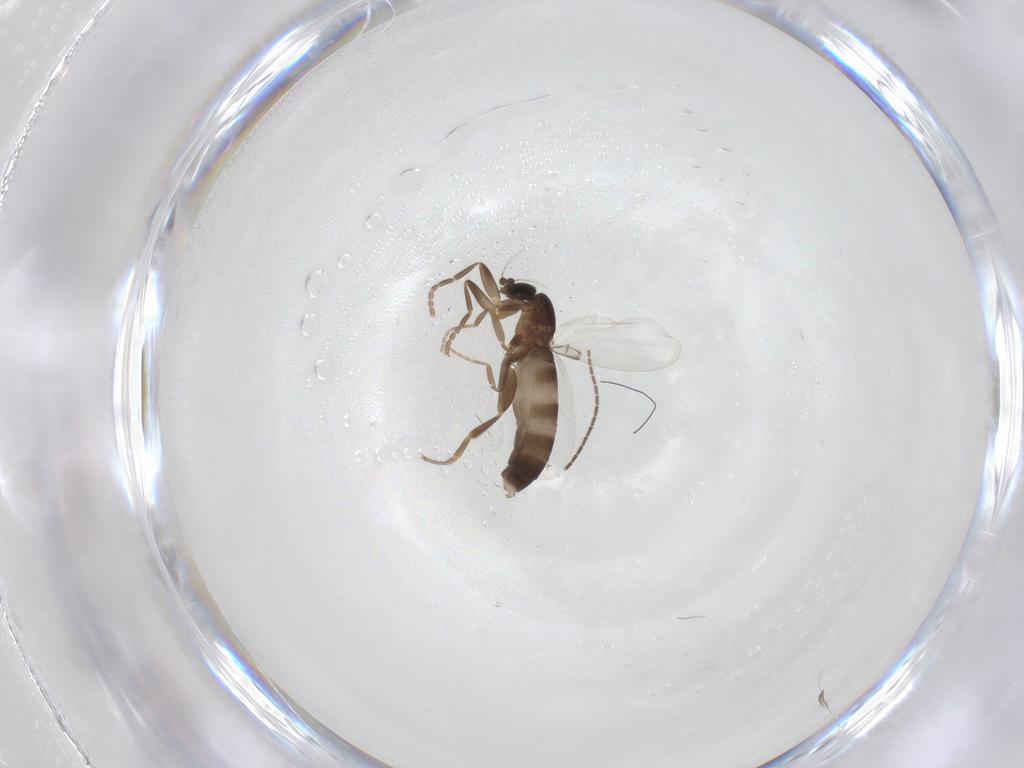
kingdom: Animalia
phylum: Arthropoda
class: Insecta
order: Diptera
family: Sciaridae
